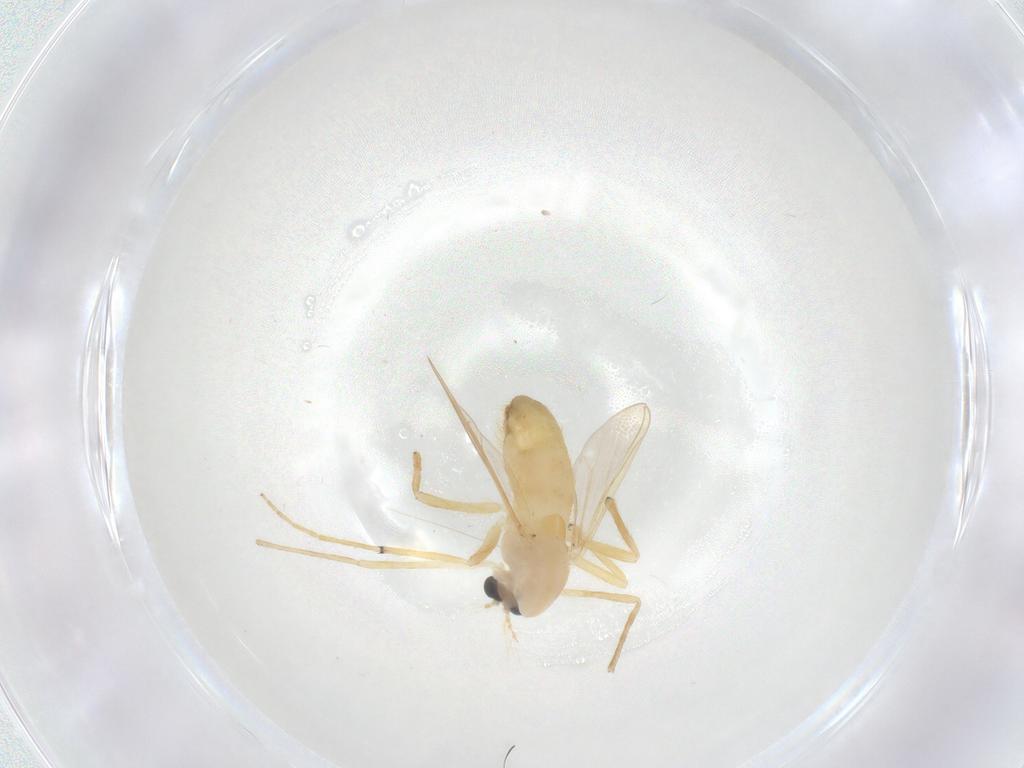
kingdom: Animalia
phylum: Arthropoda
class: Insecta
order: Diptera
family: Chironomidae
